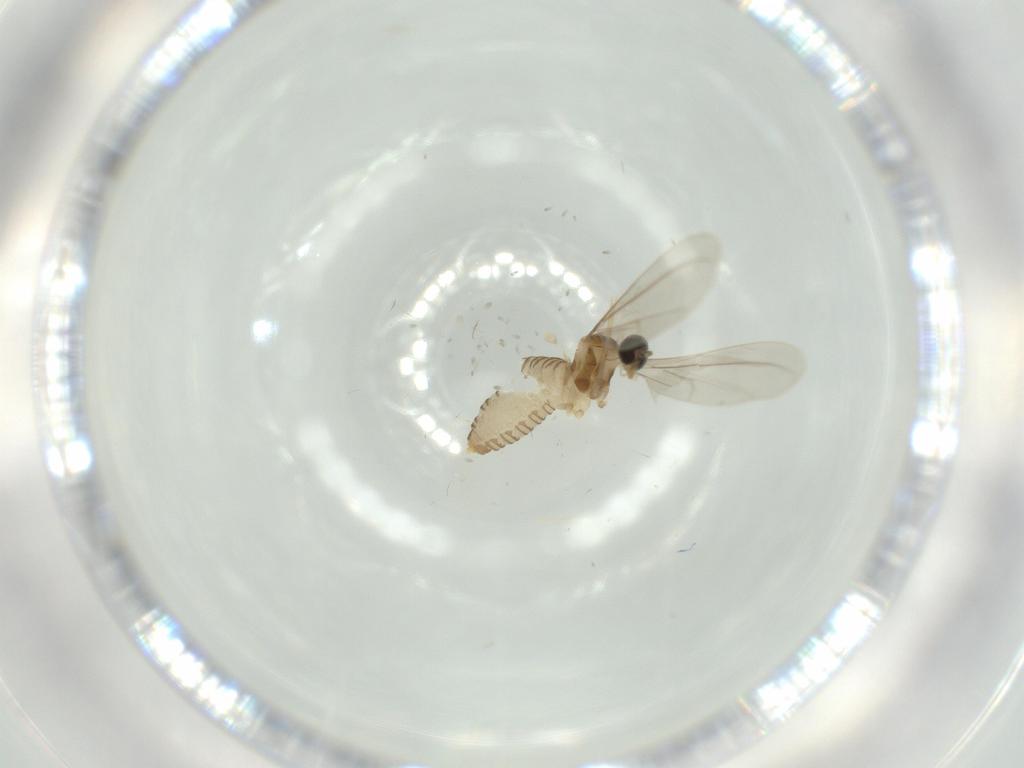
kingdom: Animalia
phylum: Arthropoda
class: Insecta
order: Diptera
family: Cecidomyiidae
